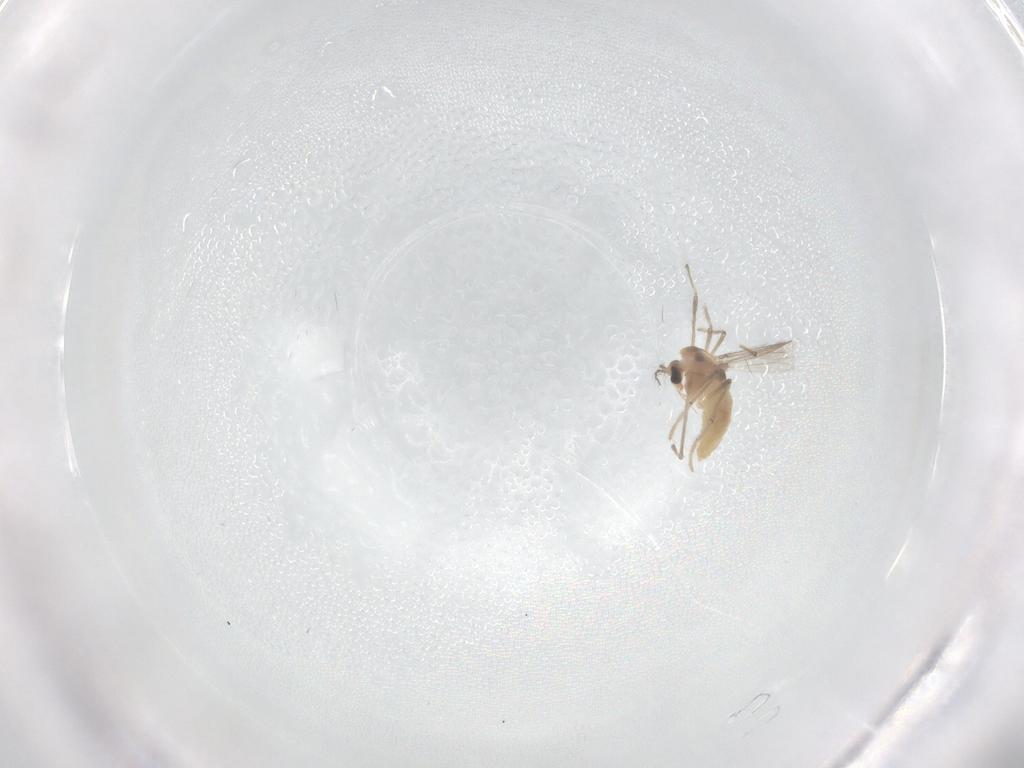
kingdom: Animalia
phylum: Arthropoda
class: Insecta
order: Diptera
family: Chironomidae
